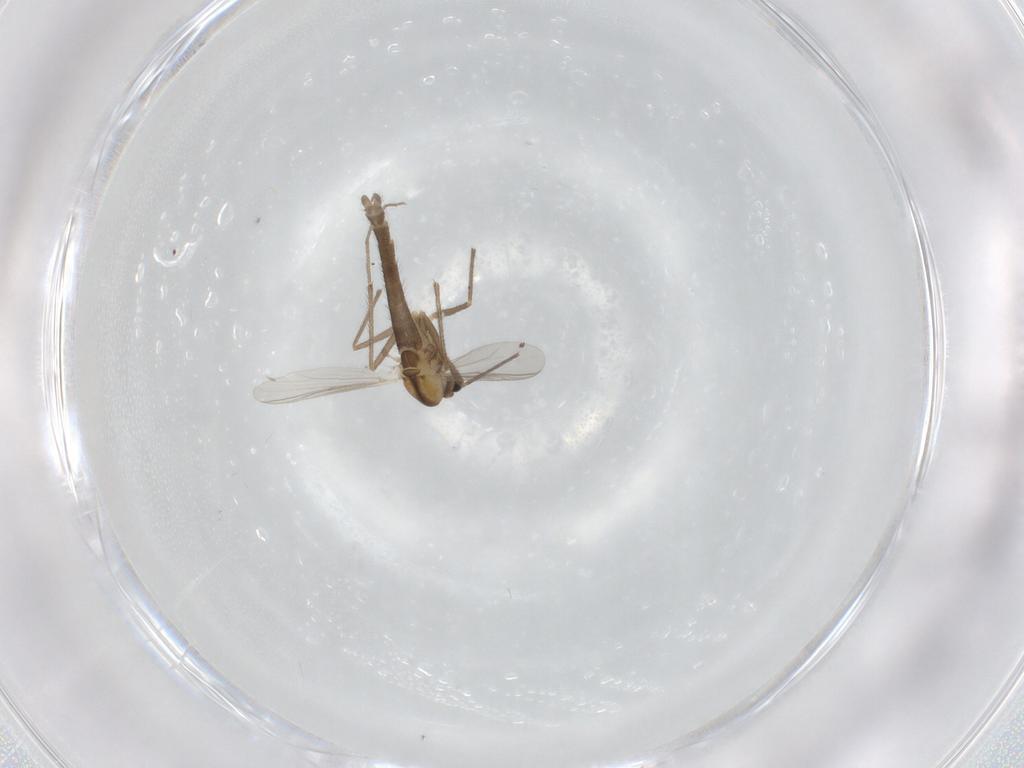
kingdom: Animalia
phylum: Arthropoda
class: Insecta
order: Diptera
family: Chironomidae
